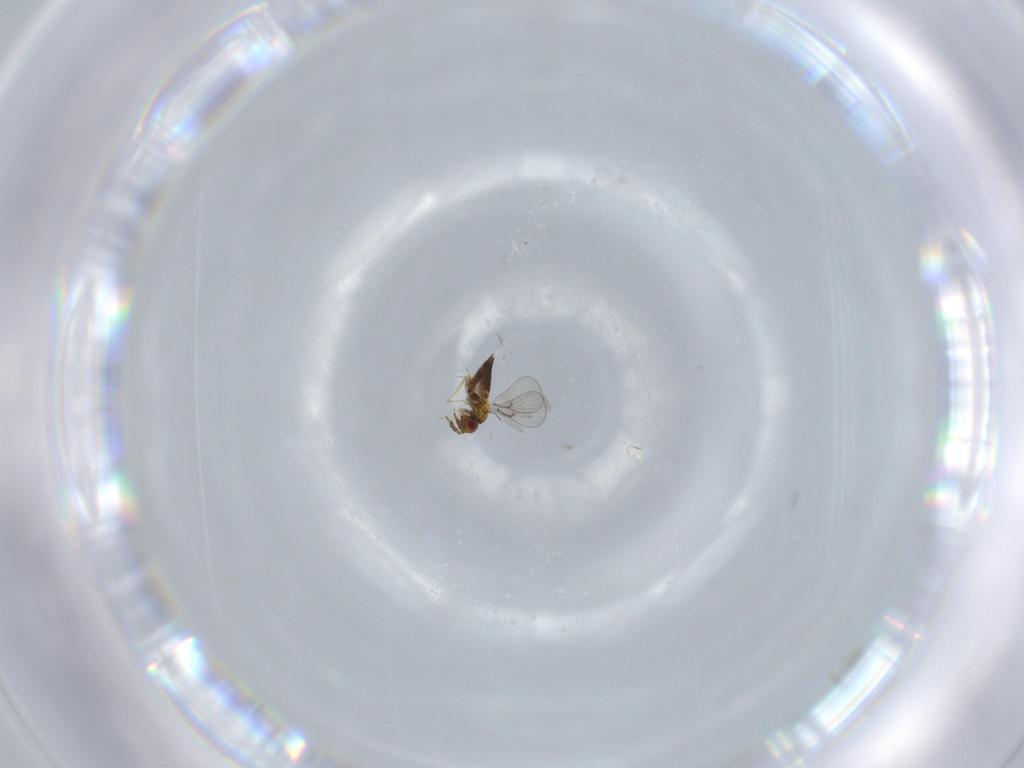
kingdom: Animalia
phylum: Arthropoda
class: Insecta
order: Hymenoptera
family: Trichogrammatidae
